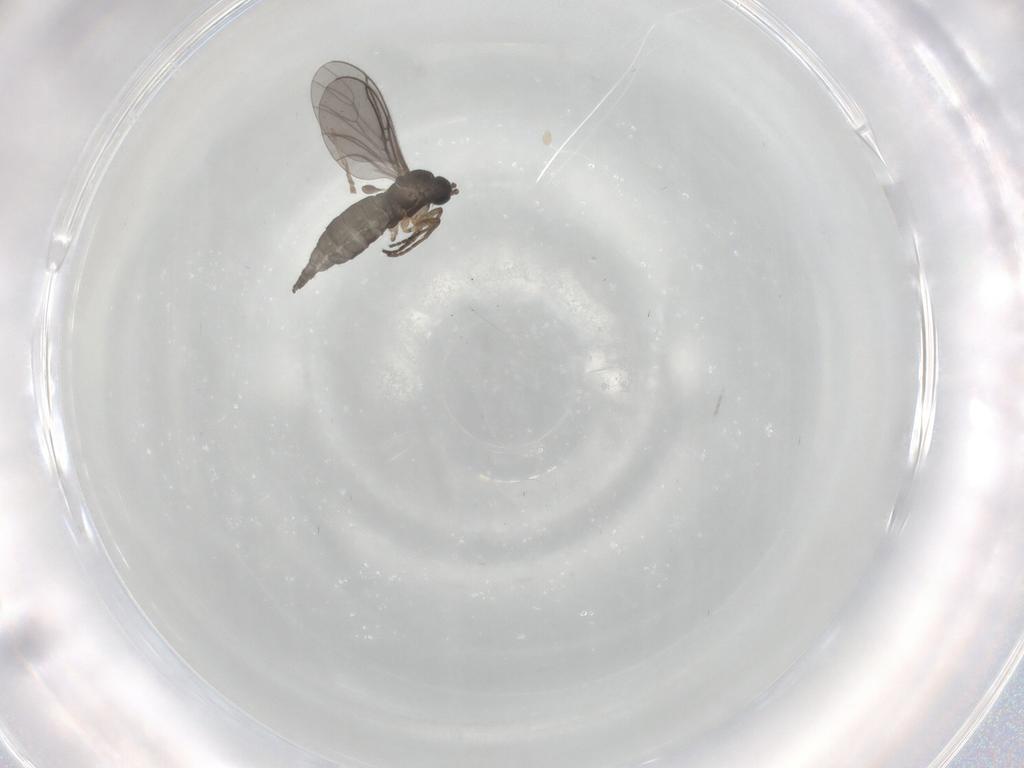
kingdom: Animalia
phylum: Arthropoda
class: Insecta
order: Diptera
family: Psychodidae
